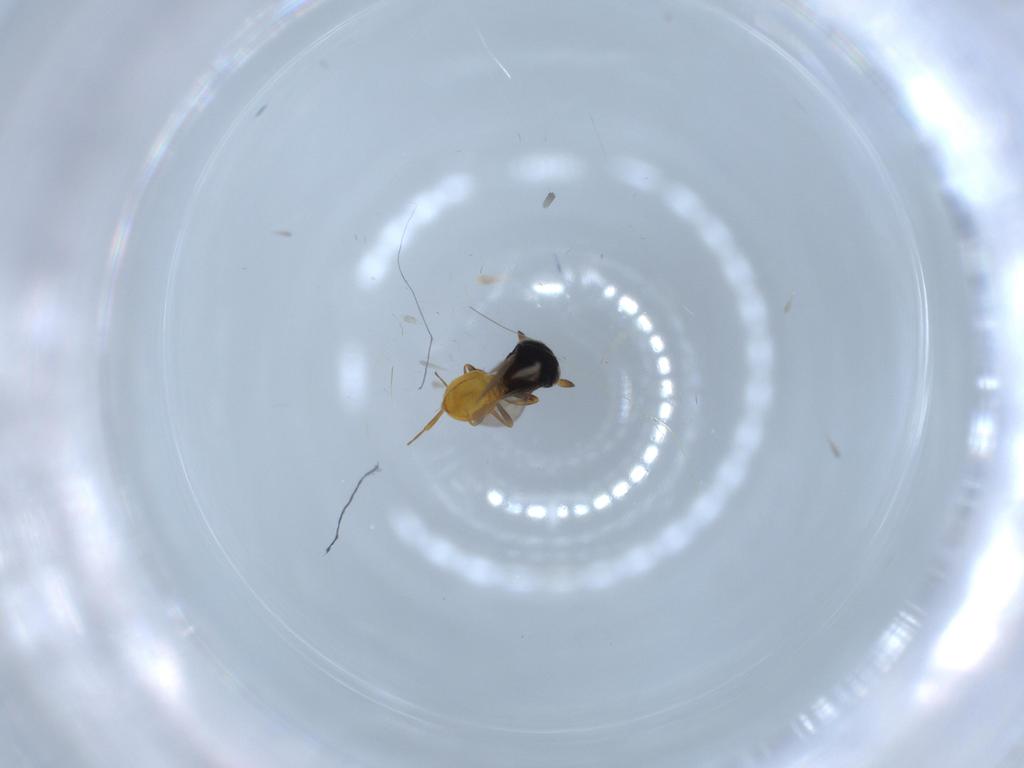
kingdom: Animalia
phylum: Arthropoda
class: Insecta
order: Hymenoptera
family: Scelionidae
